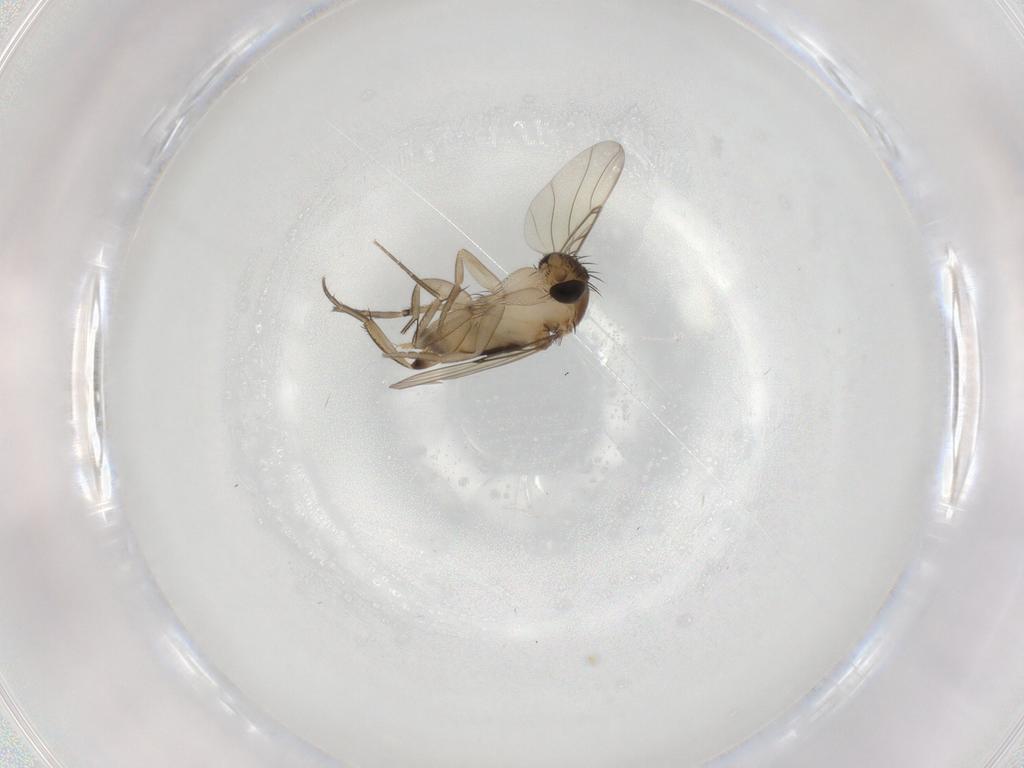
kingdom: Animalia
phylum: Arthropoda
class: Insecta
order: Diptera
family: Phoridae
